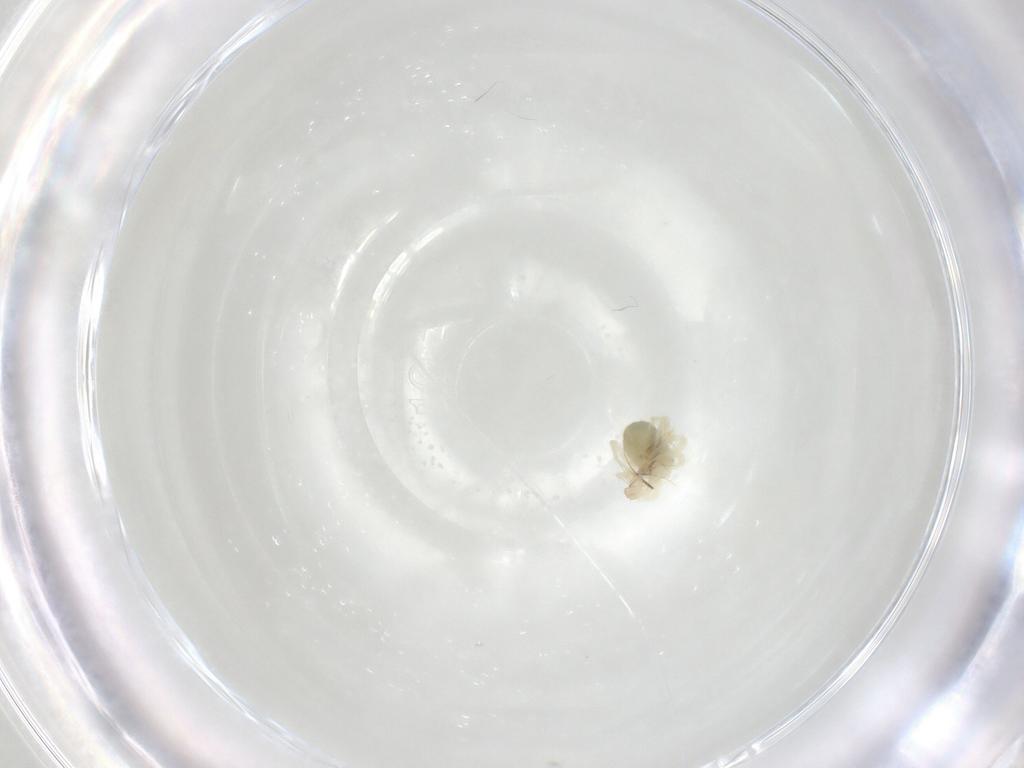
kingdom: Animalia
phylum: Arthropoda
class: Arachnida
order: Trombidiformes
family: Anystidae
